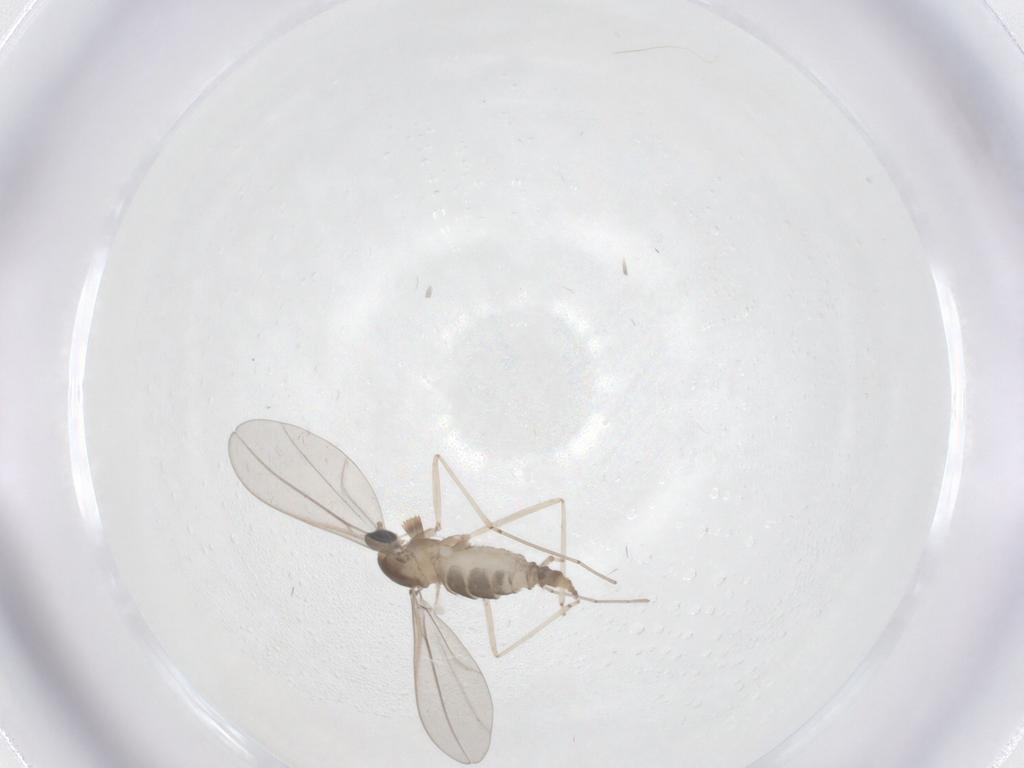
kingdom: Animalia
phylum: Arthropoda
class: Insecta
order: Diptera
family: Cecidomyiidae
